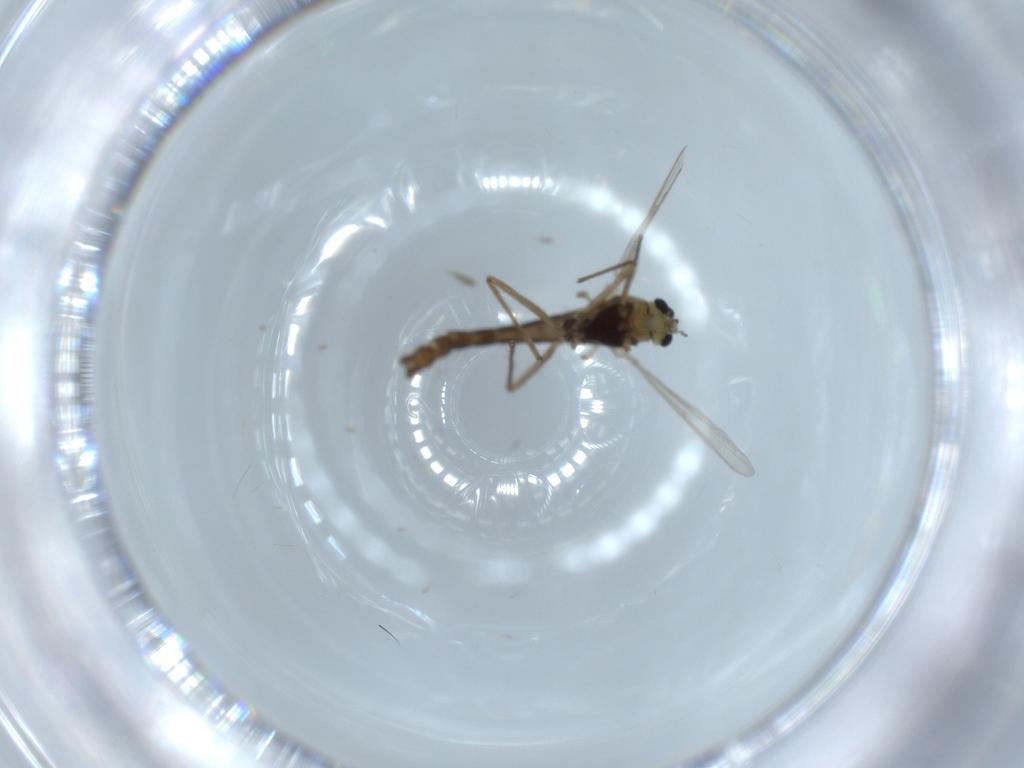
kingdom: Animalia
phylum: Arthropoda
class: Insecta
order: Diptera
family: Chironomidae
